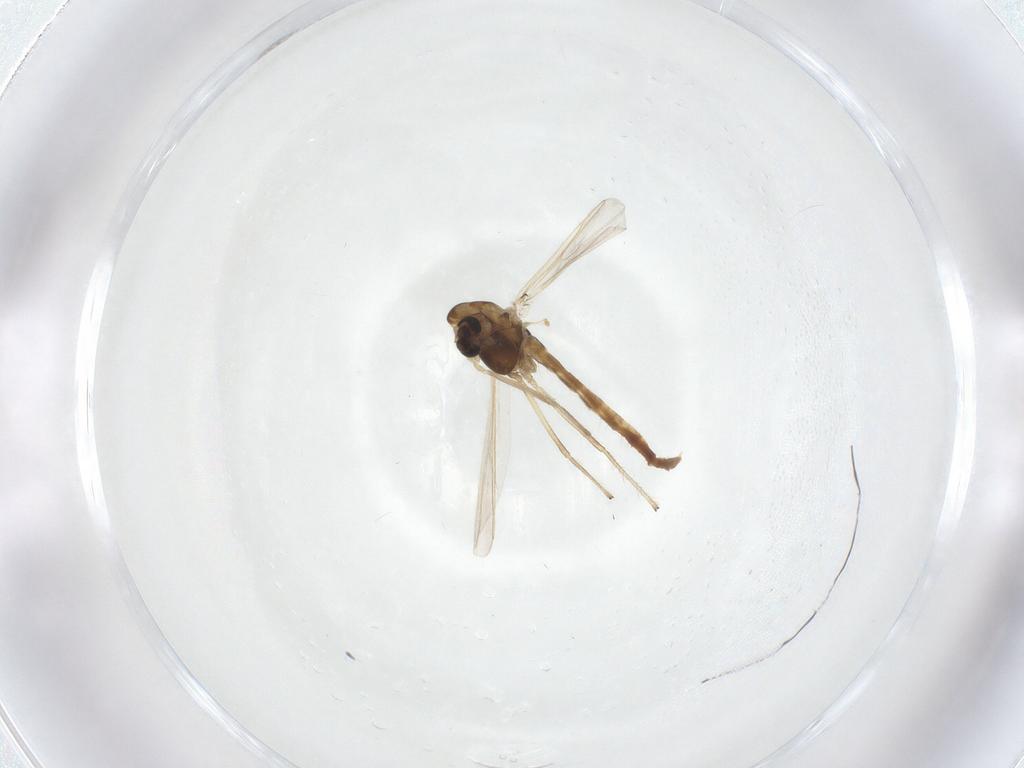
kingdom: Animalia
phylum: Arthropoda
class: Insecta
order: Diptera
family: Chironomidae
